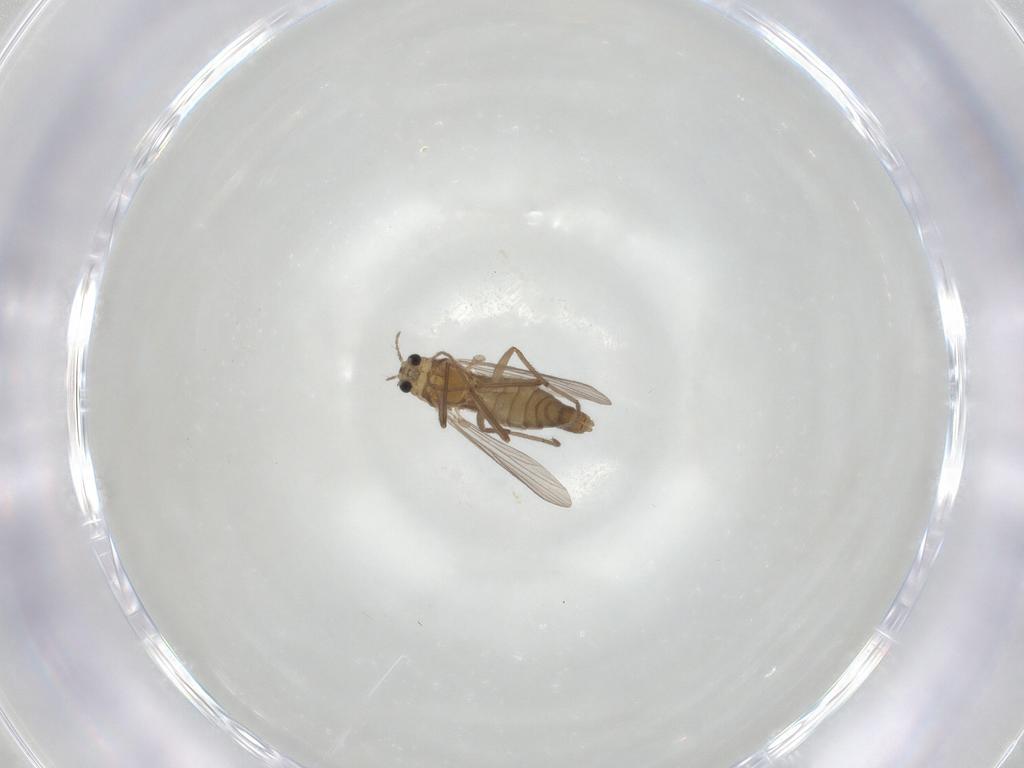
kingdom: Animalia
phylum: Arthropoda
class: Insecta
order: Diptera
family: Chironomidae
